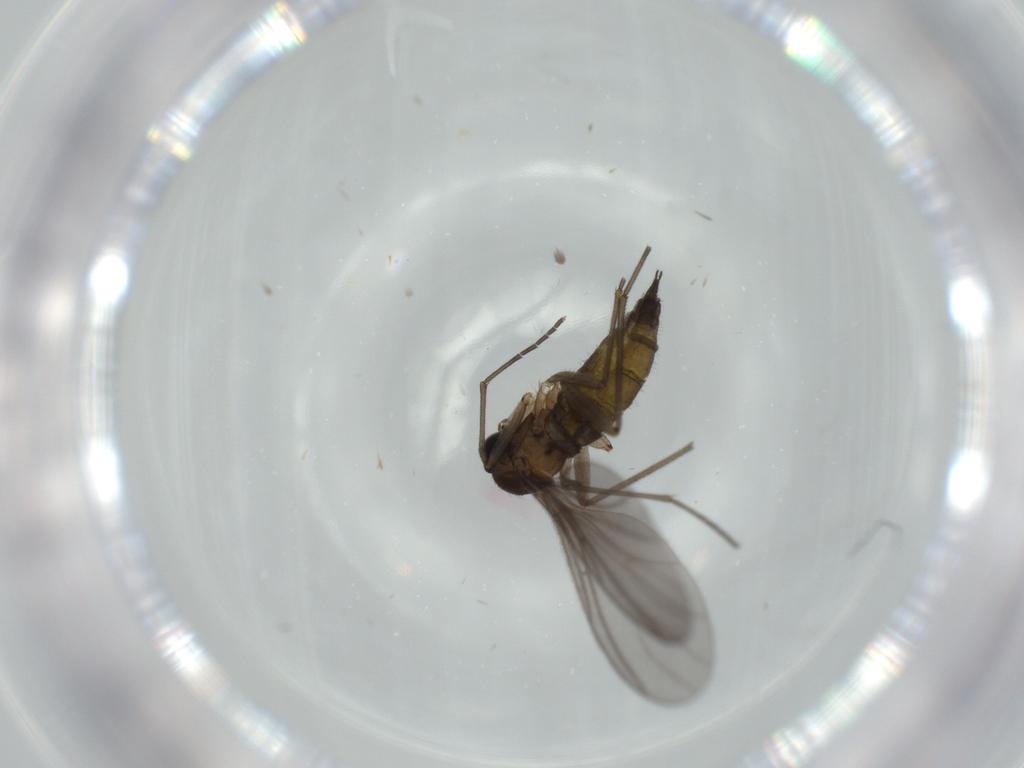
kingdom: Animalia
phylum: Arthropoda
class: Insecta
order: Diptera
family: Sciaridae
